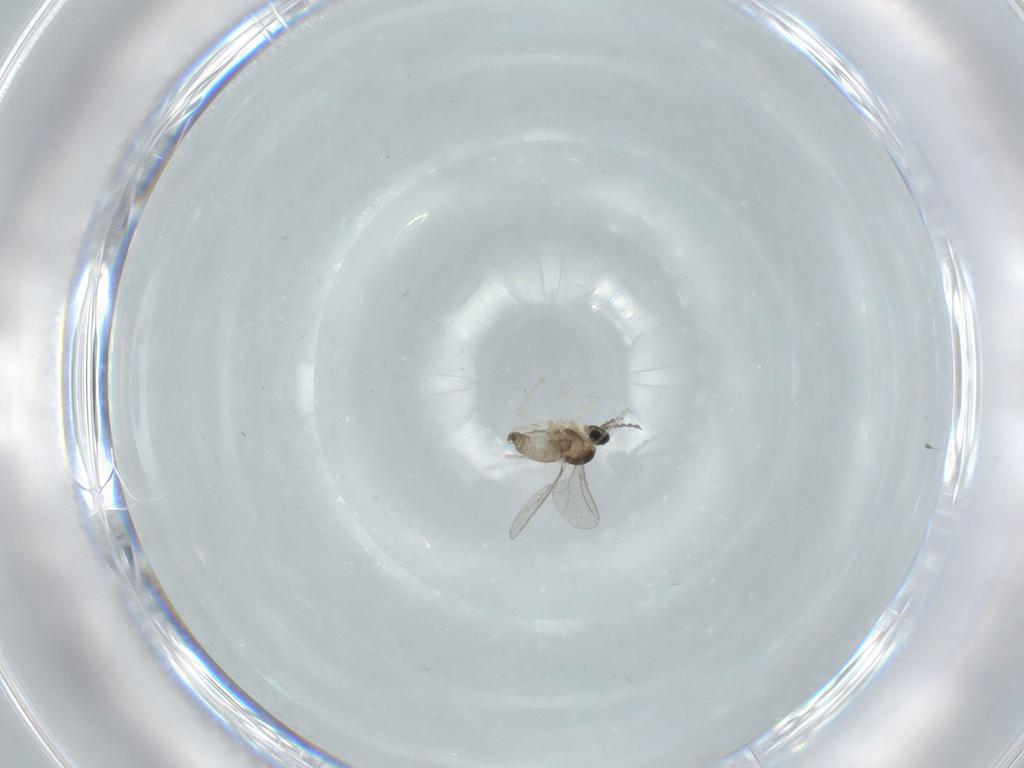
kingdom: Animalia
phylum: Arthropoda
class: Insecta
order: Diptera
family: Cecidomyiidae
